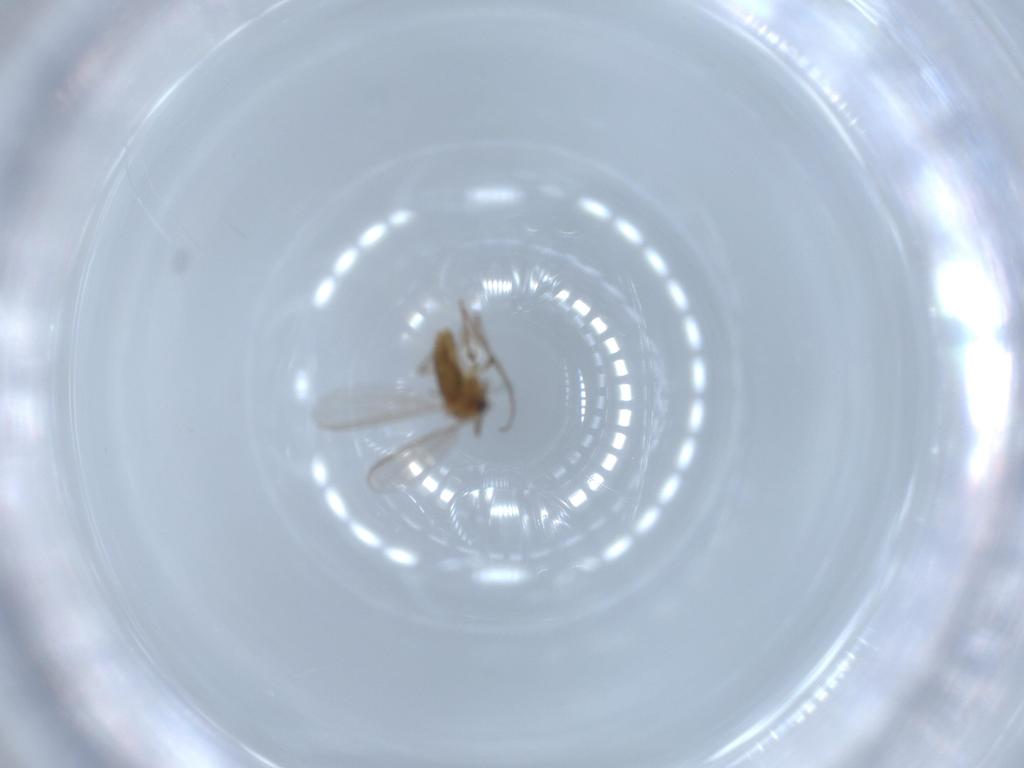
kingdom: Animalia
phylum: Arthropoda
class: Insecta
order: Diptera
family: Chironomidae
